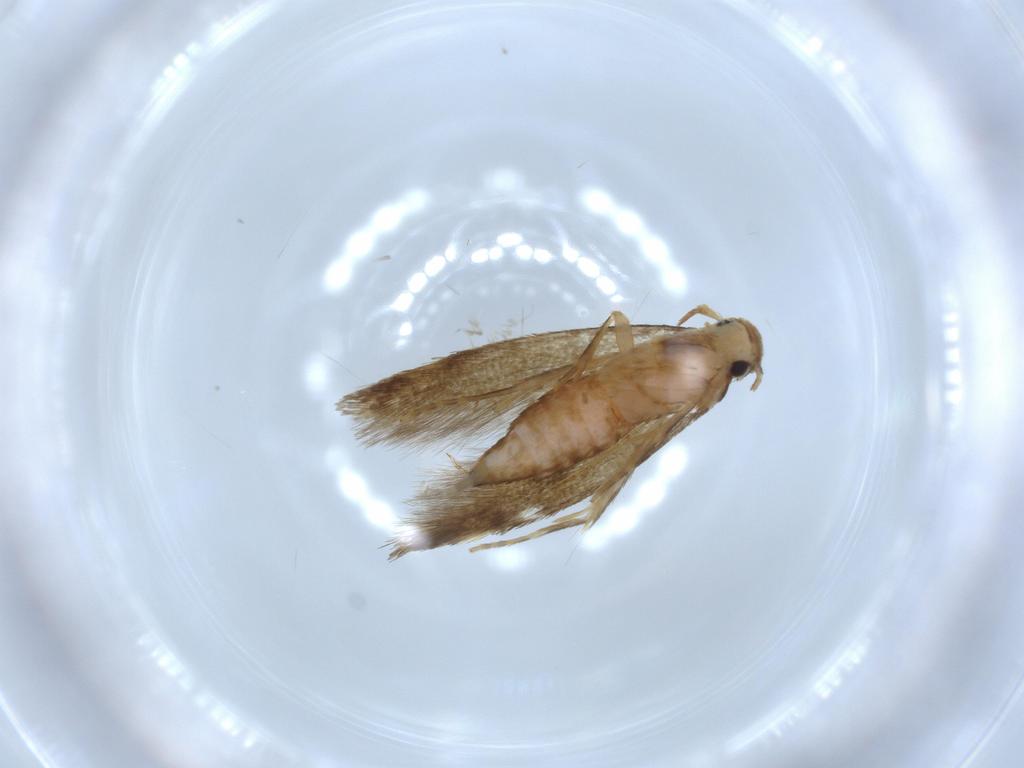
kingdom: Animalia
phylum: Arthropoda
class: Insecta
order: Lepidoptera
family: Tineidae
